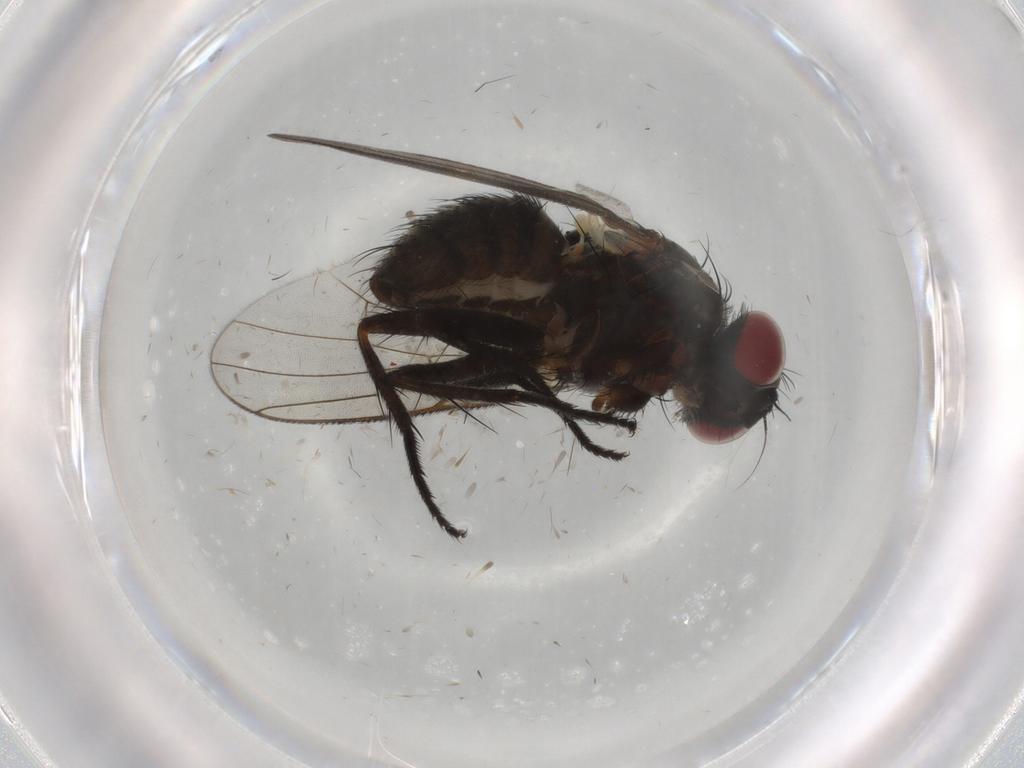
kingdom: Animalia
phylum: Arthropoda
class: Insecta
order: Diptera
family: Muscidae
